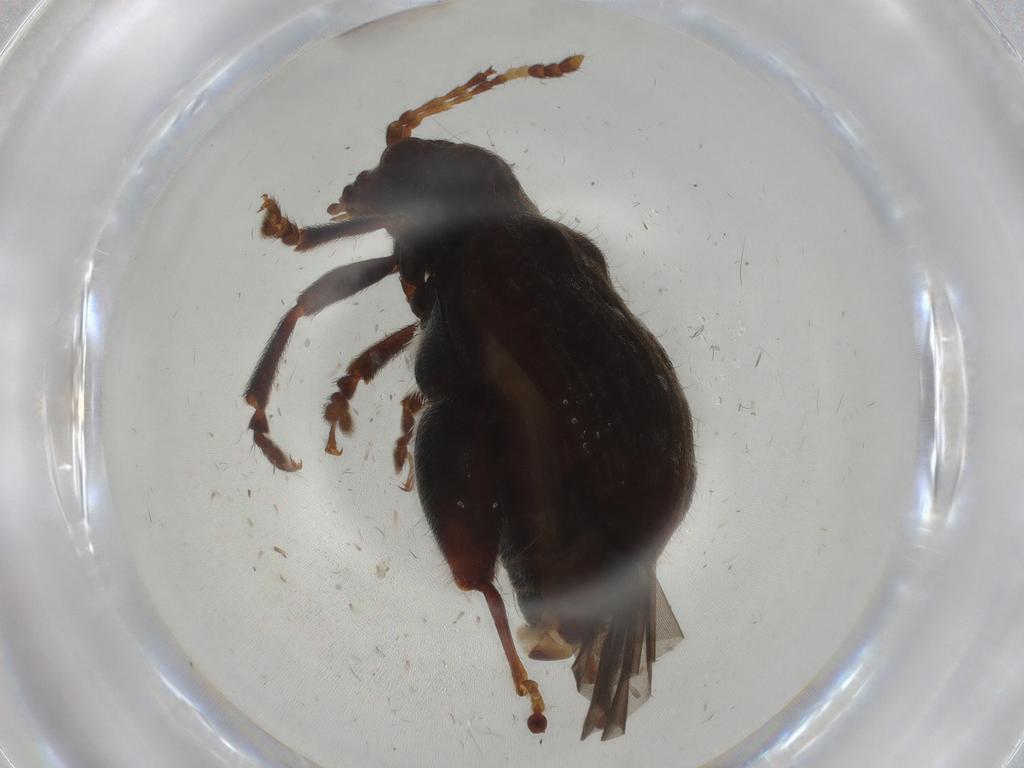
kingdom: Animalia
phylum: Arthropoda
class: Insecta
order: Coleoptera
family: Chrysomelidae
